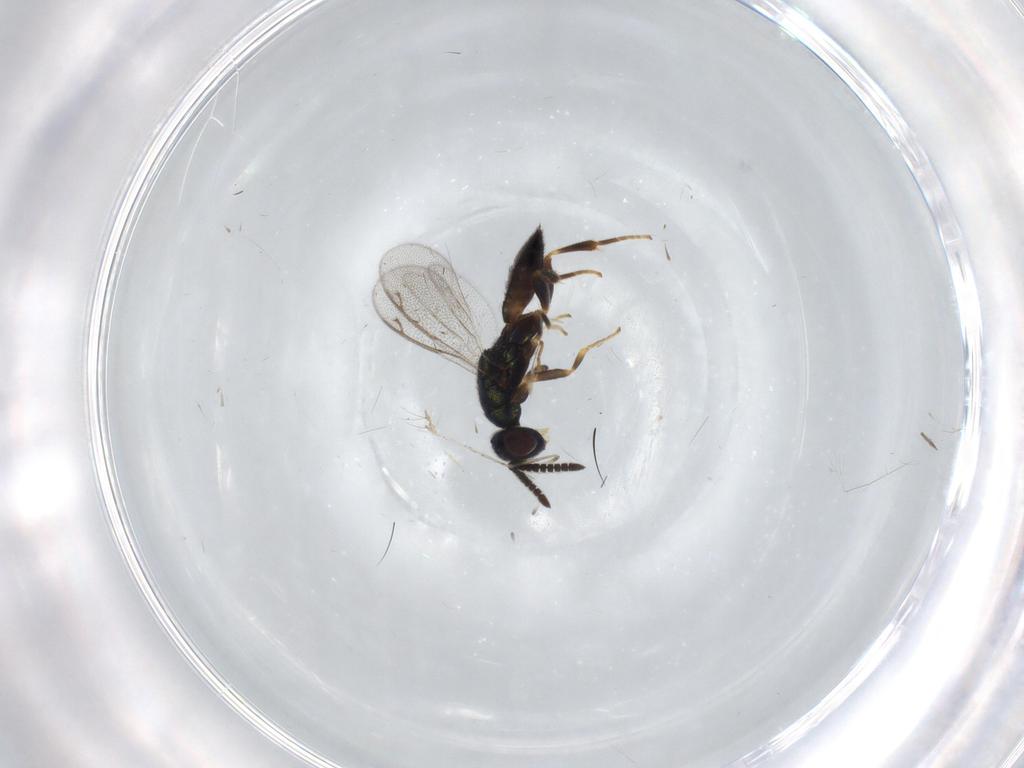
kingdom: Animalia
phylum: Arthropoda
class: Insecta
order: Hymenoptera
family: Cleonyminae
